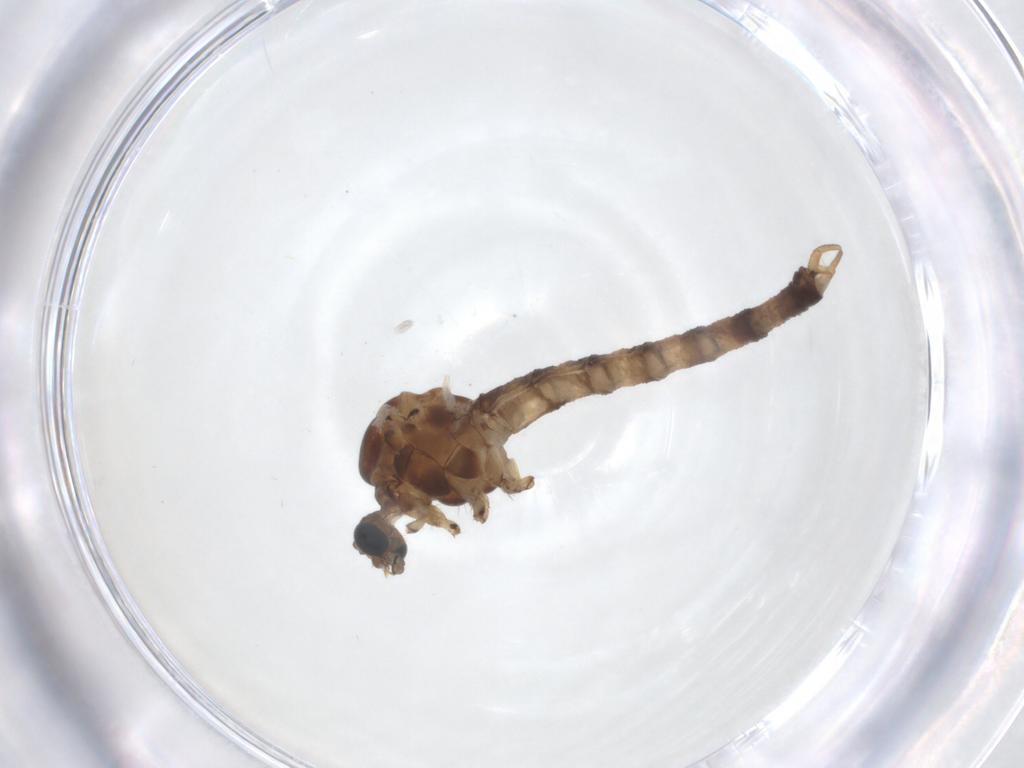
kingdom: Animalia
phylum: Arthropoda
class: Insecta
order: Diptera
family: Trichoceridae
